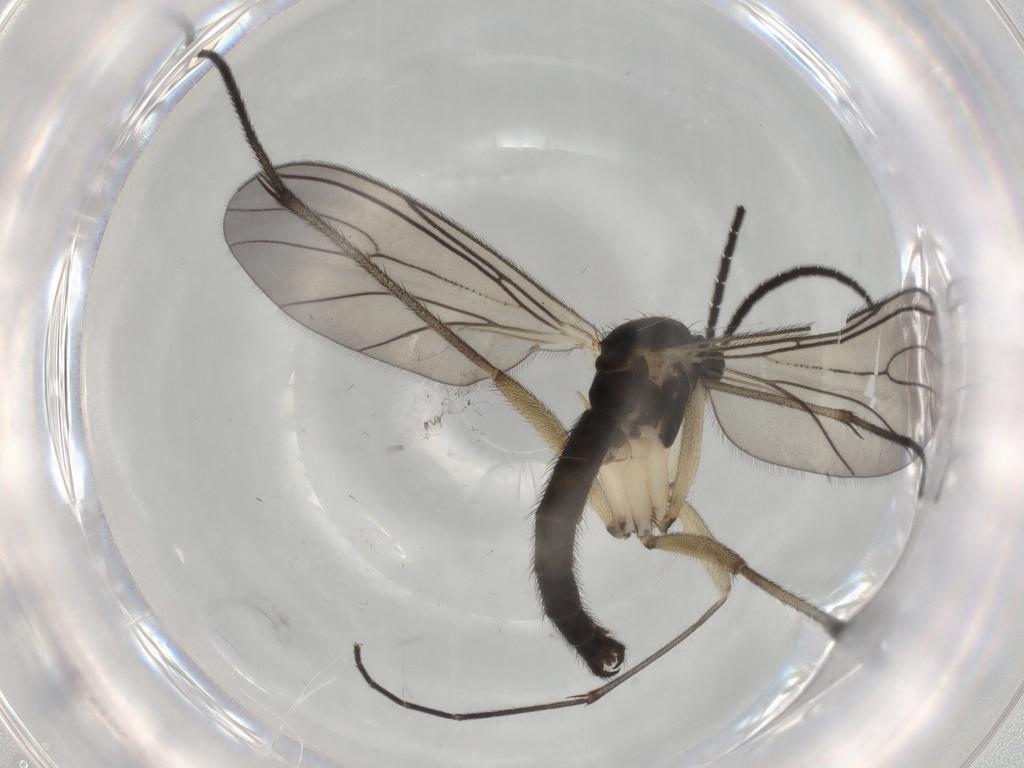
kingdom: Animalia
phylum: Arthropoda
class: Insecta
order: Diptera
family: Sciaridae
